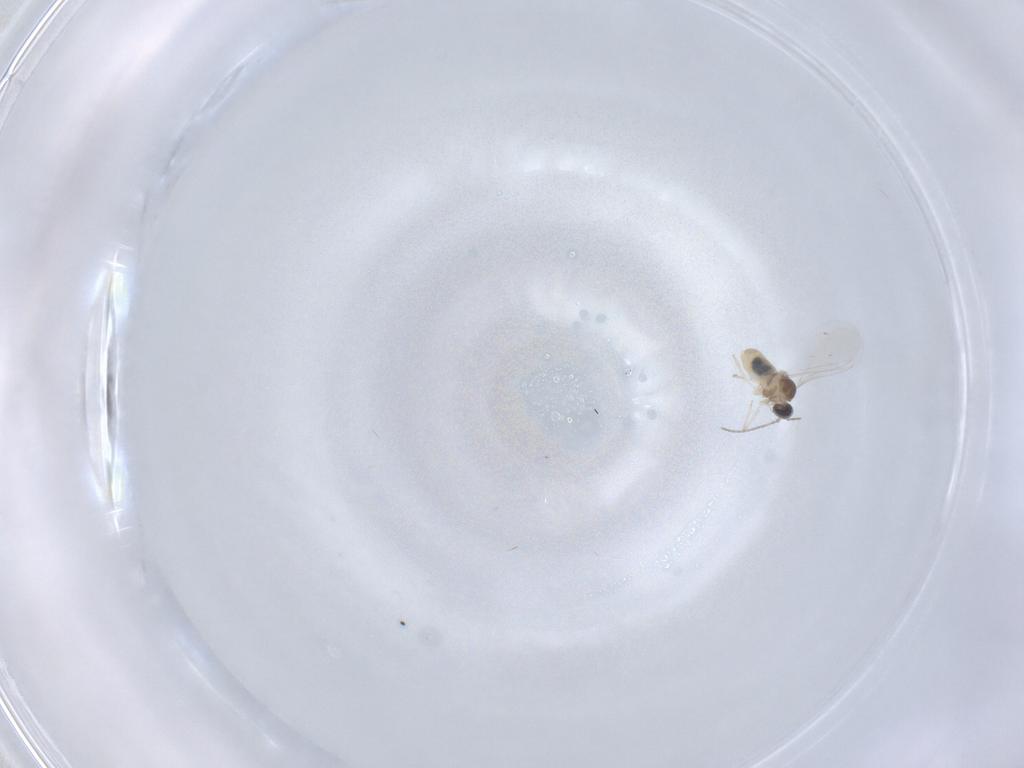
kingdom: Animalia
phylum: Arthropoda
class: Insecta
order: Diptera
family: Cecidomyiidae
